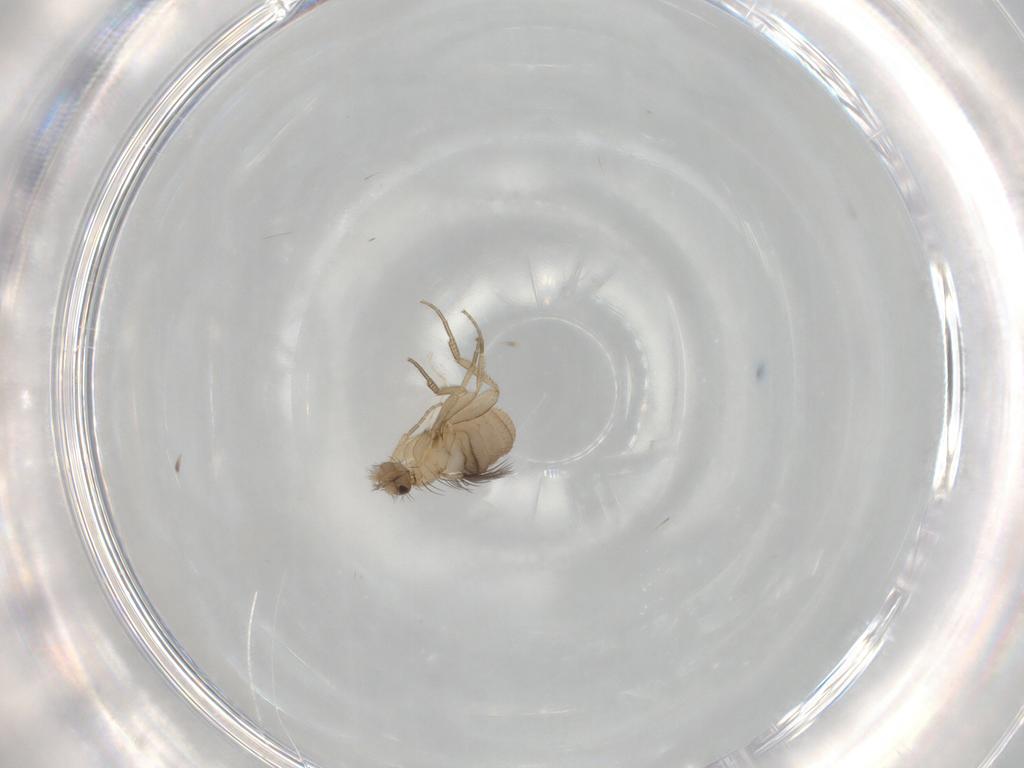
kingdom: Animalia
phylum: Arthropoda
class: Insecta
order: Diptera
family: Phoridae
